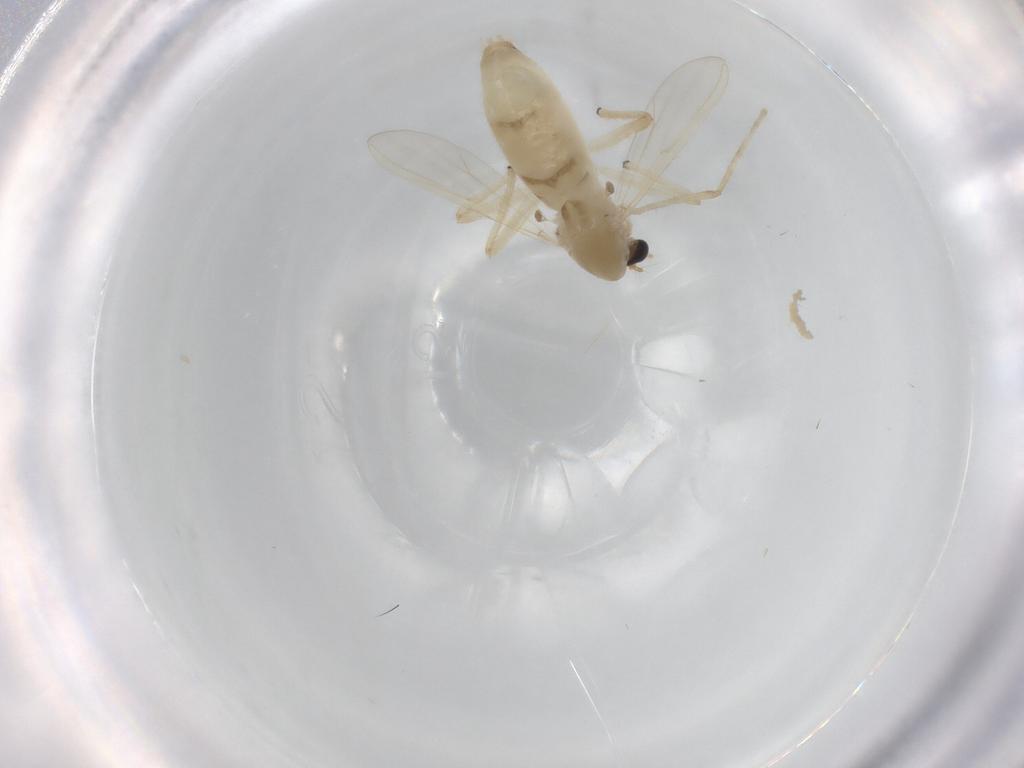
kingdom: Animalia
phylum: Arthropoda
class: Insecta
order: Diptera
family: Chironomidae
